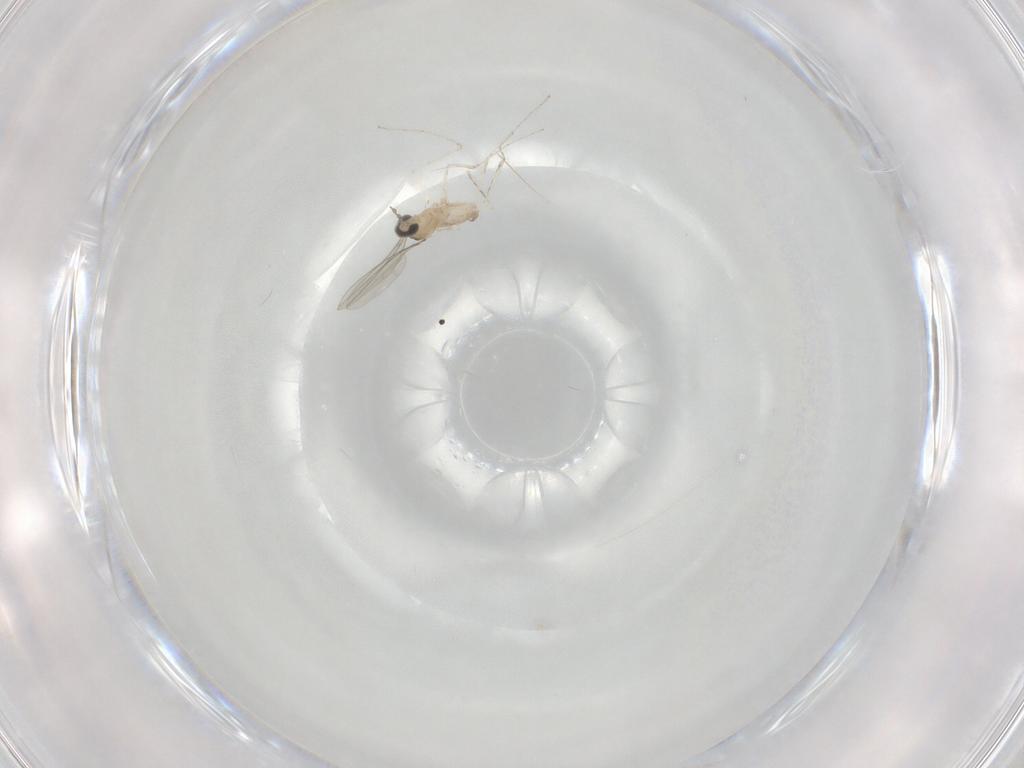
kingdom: Animalia
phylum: Arthropoda
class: Insecta
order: Diptera
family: Cecidomyiidae
